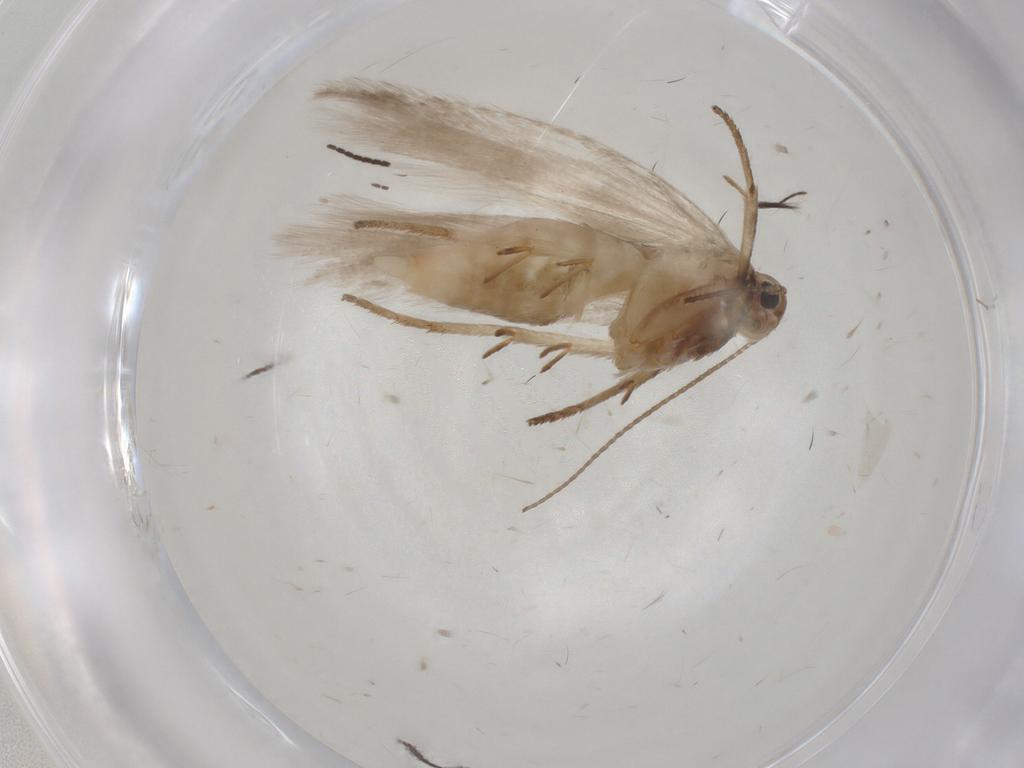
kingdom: Animalia
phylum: Arthropoda
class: Insecta
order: Lepidoptera
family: Gelechiidae
